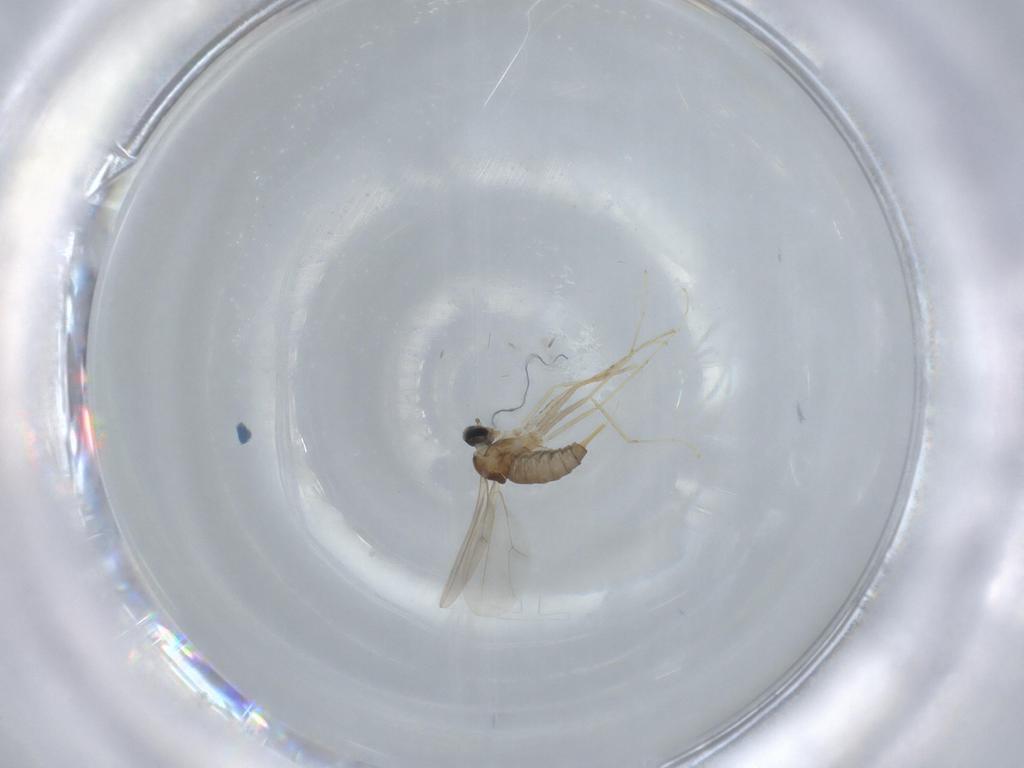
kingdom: Animalia
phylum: Arthropoda
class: Insecta
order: Diptera
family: Cecidomyiidae
